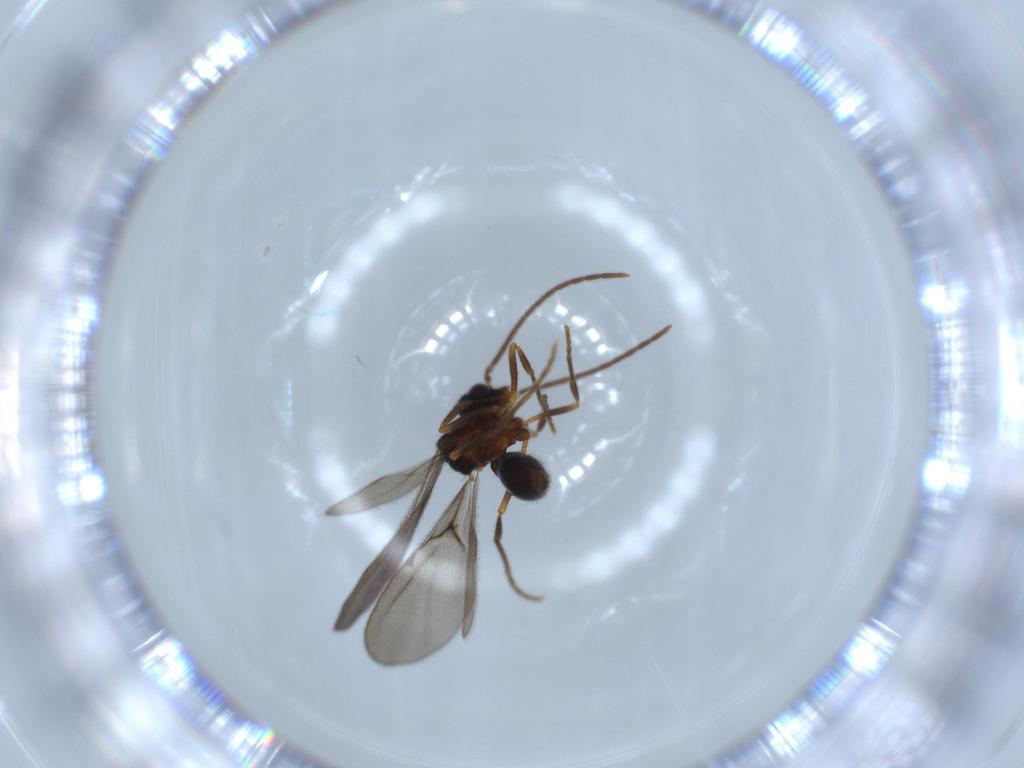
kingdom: Animalia
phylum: Arthropoda
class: Insecta
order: Hymenoptera
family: Formicidae
